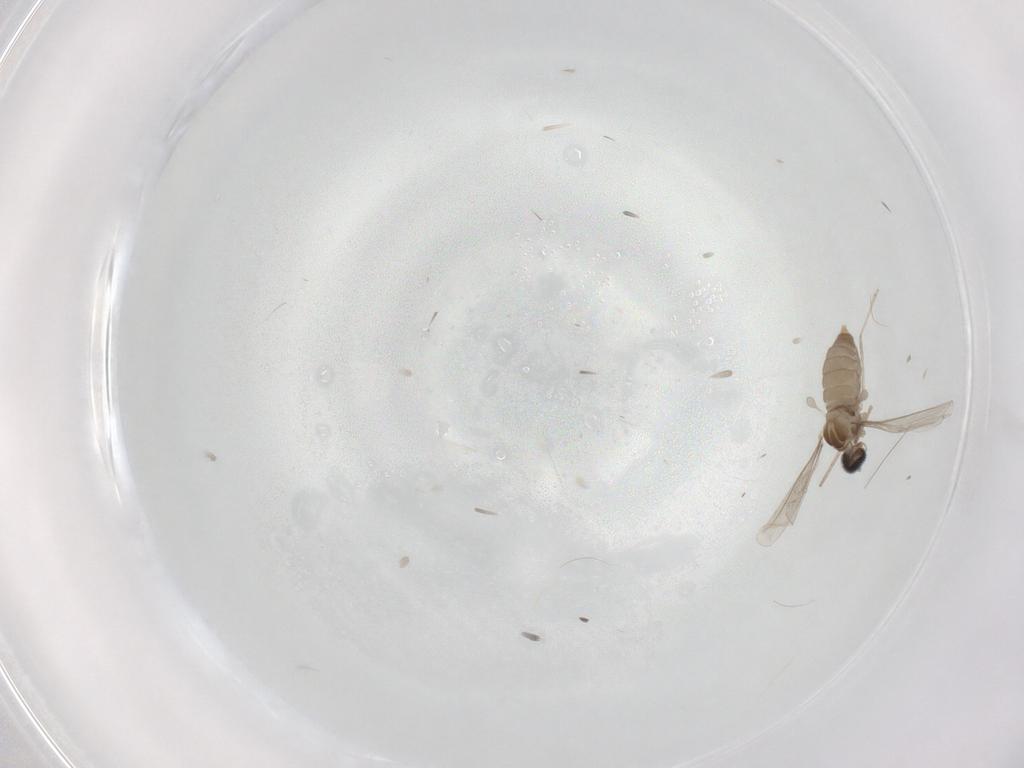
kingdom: Animalia
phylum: Arthropoda
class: Insecta
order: Diptera
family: Cecidomyiidae
